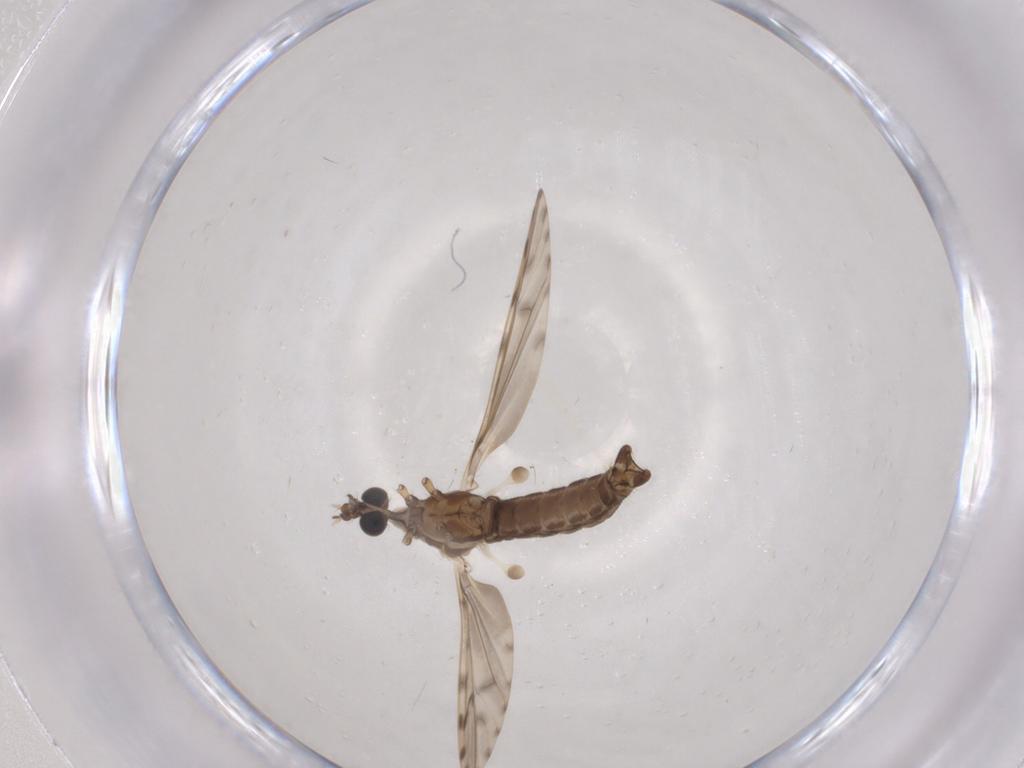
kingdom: Animalia
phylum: Arthropoda
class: Insecta
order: Diptera
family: Limoniidae
